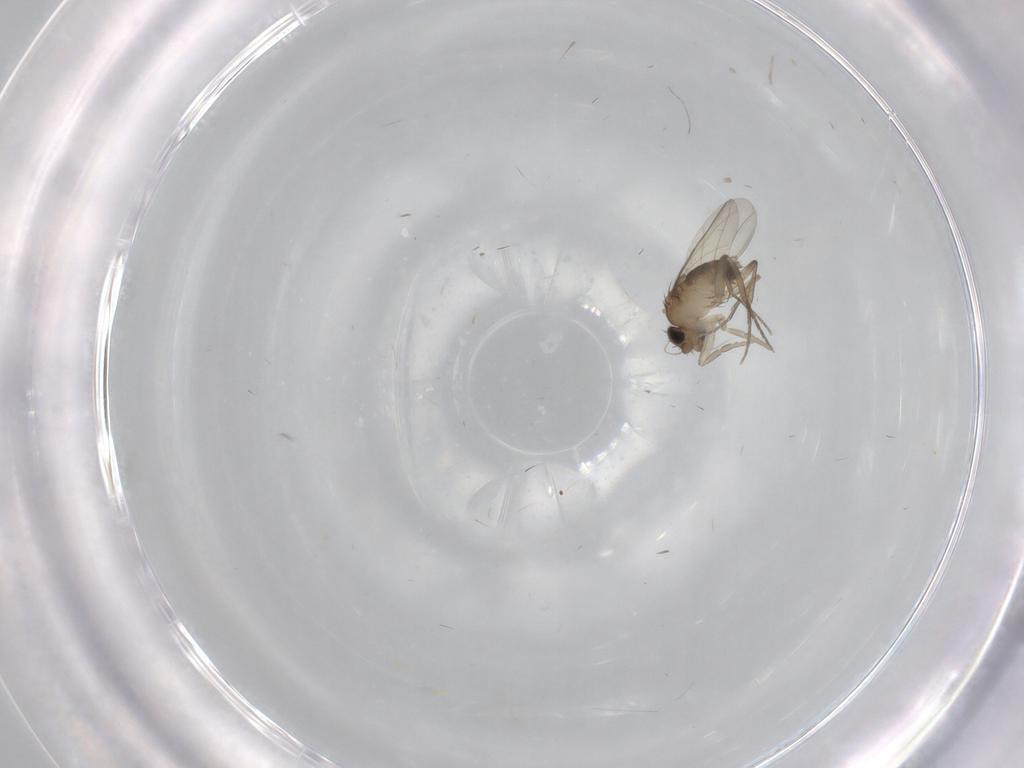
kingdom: Animalia
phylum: Arthropoda
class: Insecta
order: Diptera
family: Phoridae
